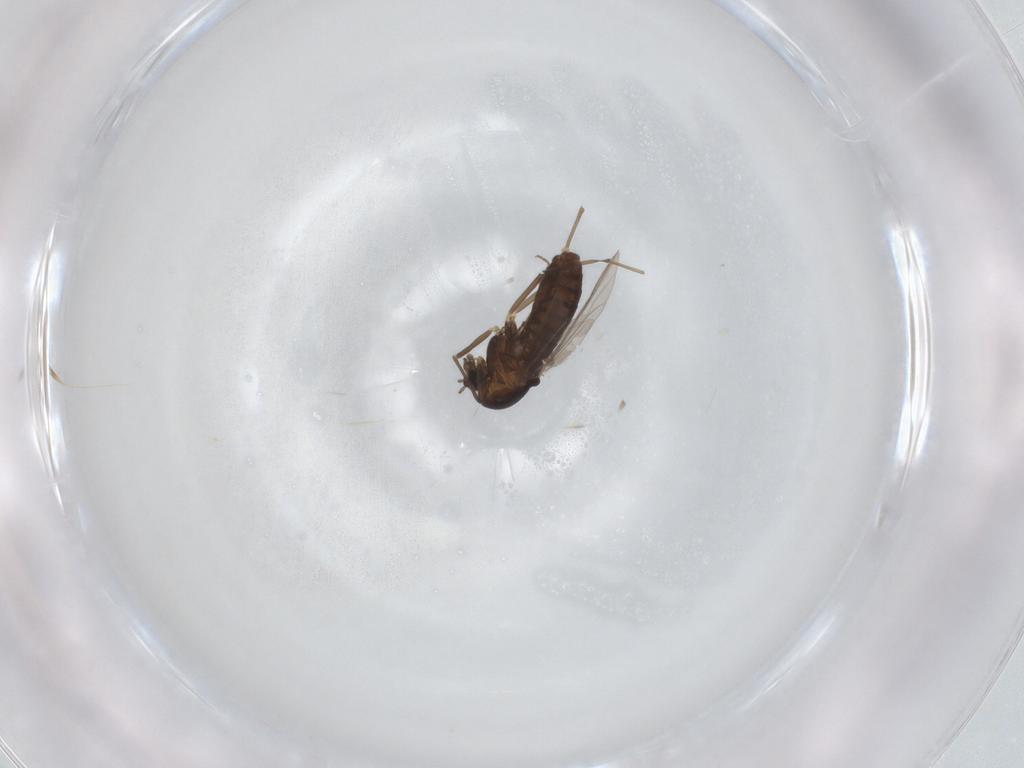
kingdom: Animalia
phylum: Arthropoda
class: Insecta
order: Diptera
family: Chironomidae
